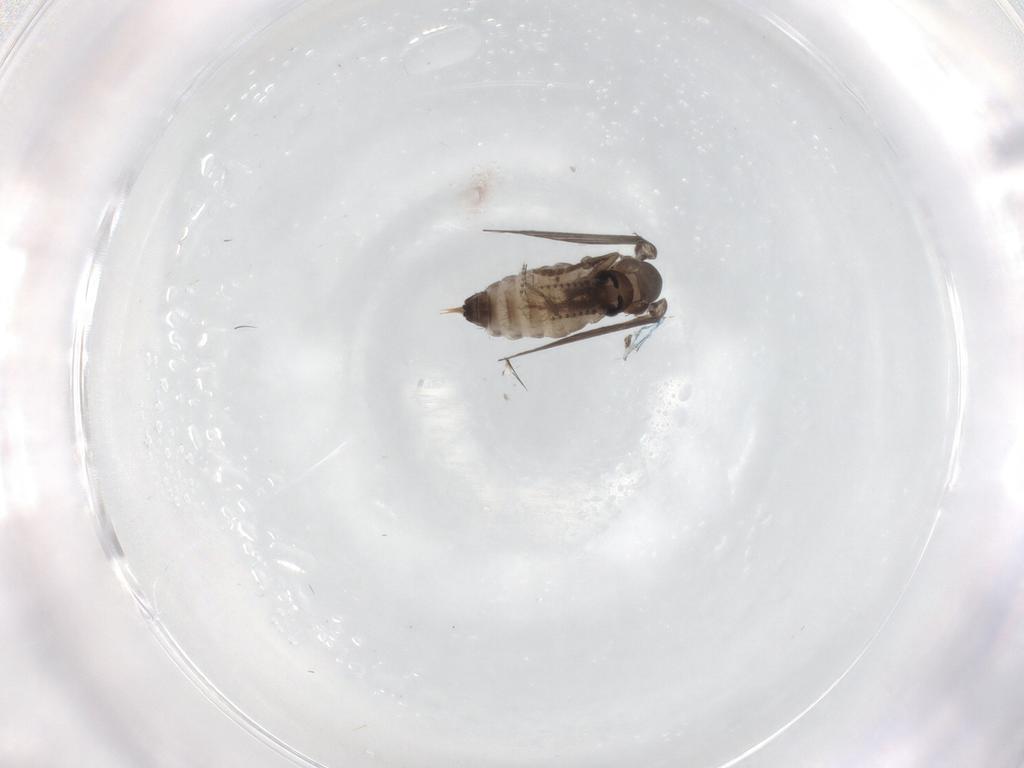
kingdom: Animalia
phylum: Arthropoda
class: Insecta
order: Diptera
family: Psychodidae
